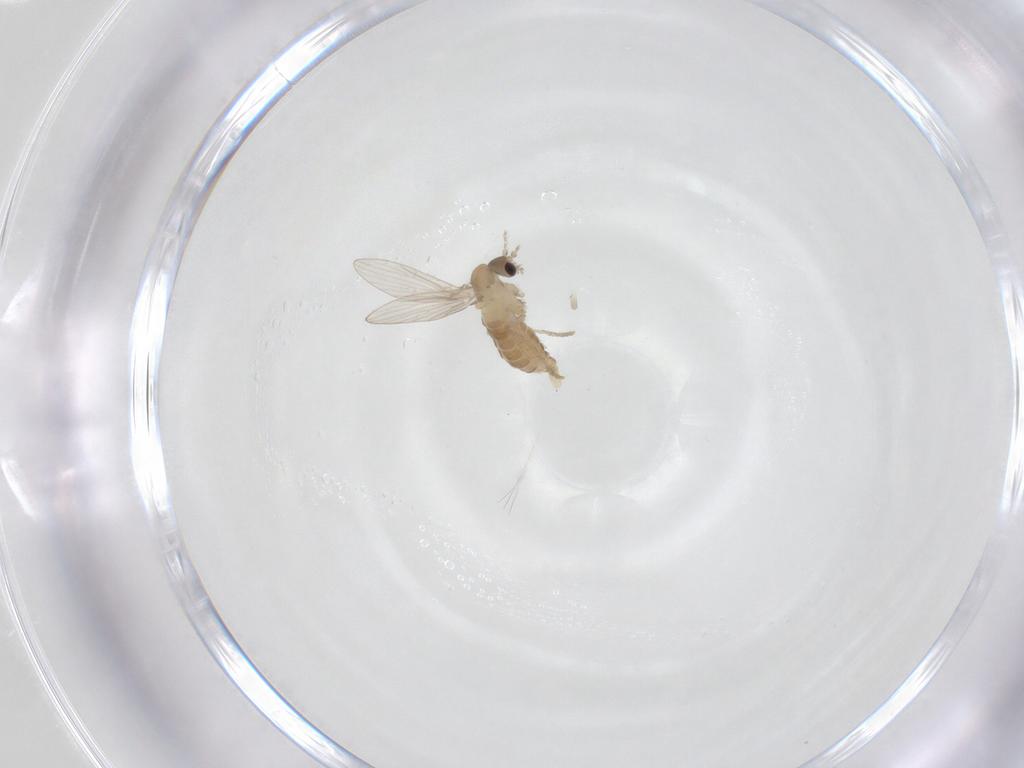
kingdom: Animalia
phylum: Arthropoda
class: Insecta
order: Diptera
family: Psychodidae
